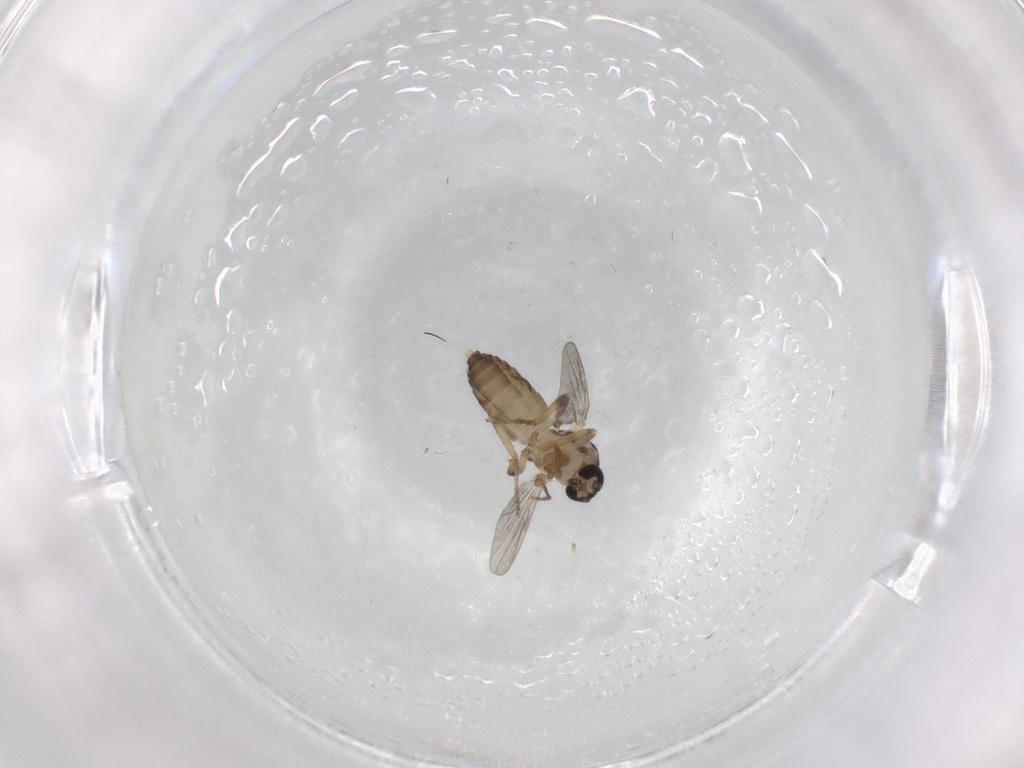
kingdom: Animalia
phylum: Arthropoda
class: Insecta
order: Diptera
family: Ceratopogonidae
